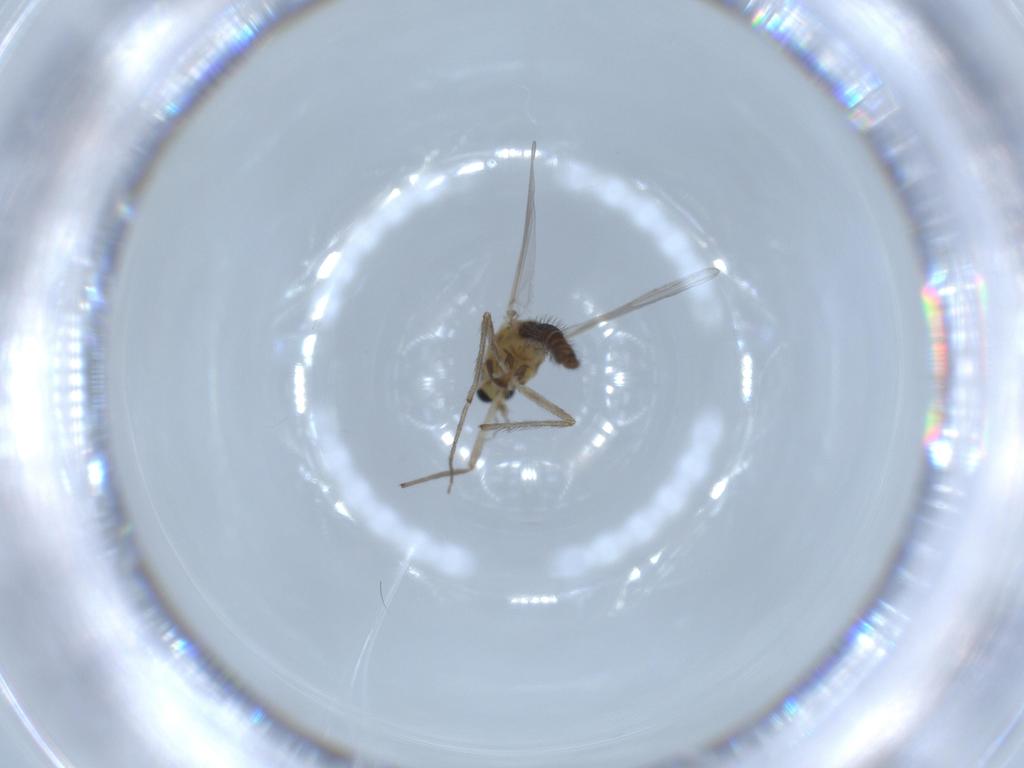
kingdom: Animalia
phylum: Arthropoda
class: Insecta
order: Diptera
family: Chironomidae
